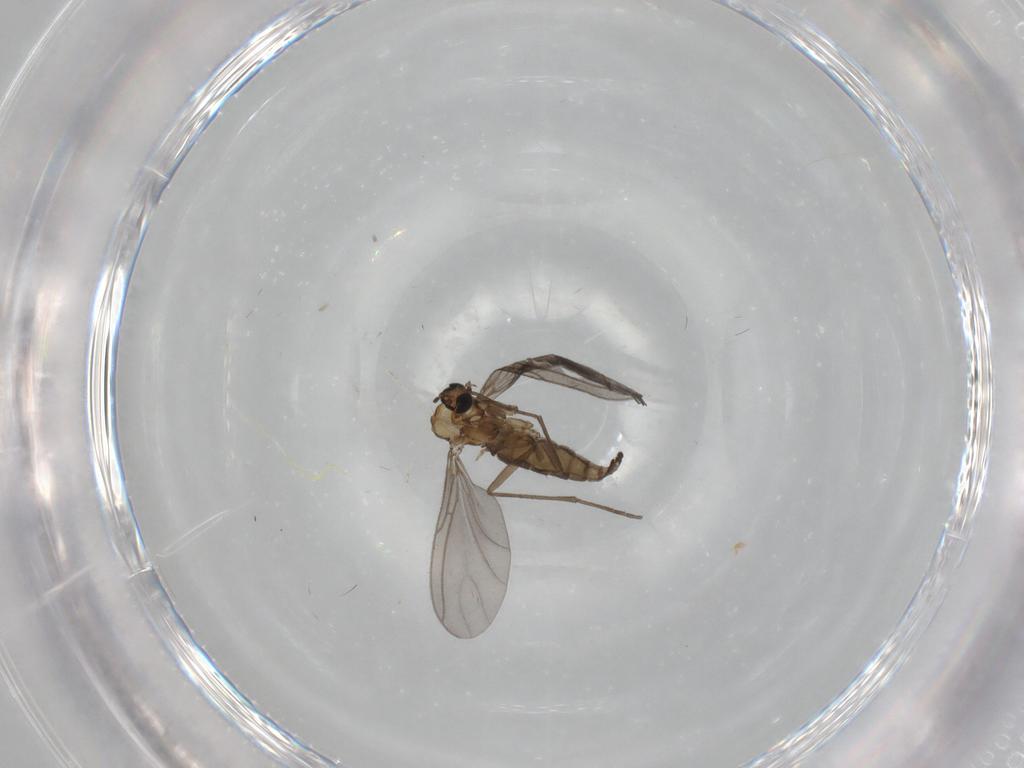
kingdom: Animalia
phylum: Arthropoda
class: Insecta
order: Diptera
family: Sciaridae
